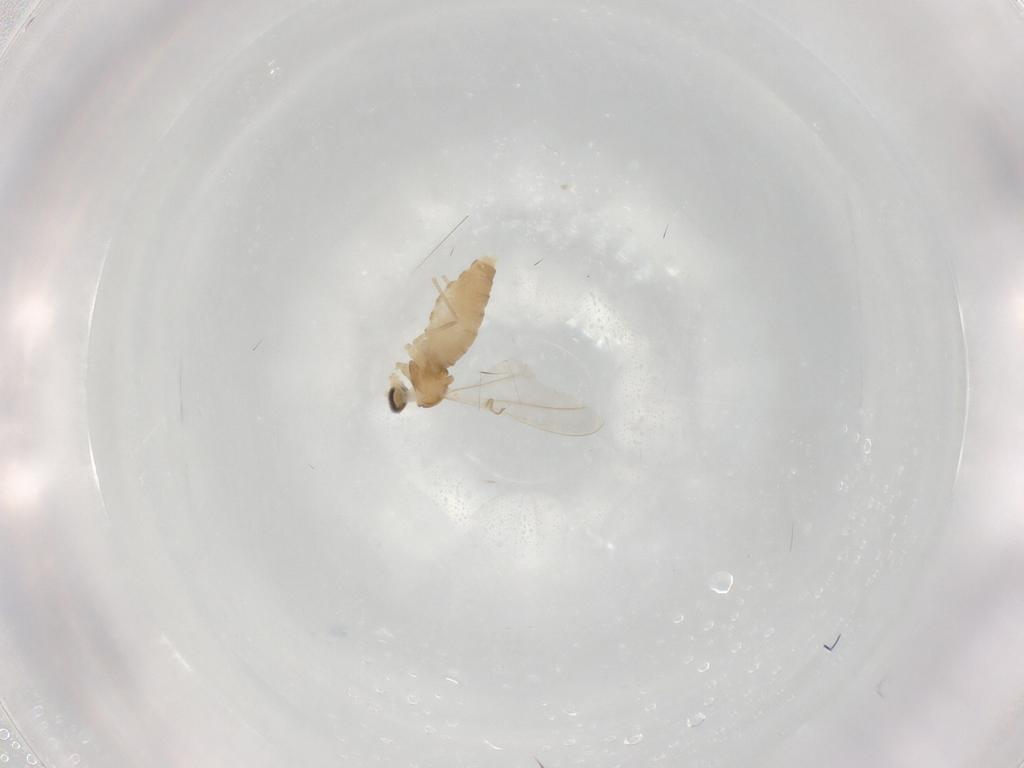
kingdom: Animalia
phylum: Arthropoda
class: Insecta
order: Diptera
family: Cecidomyiidae
